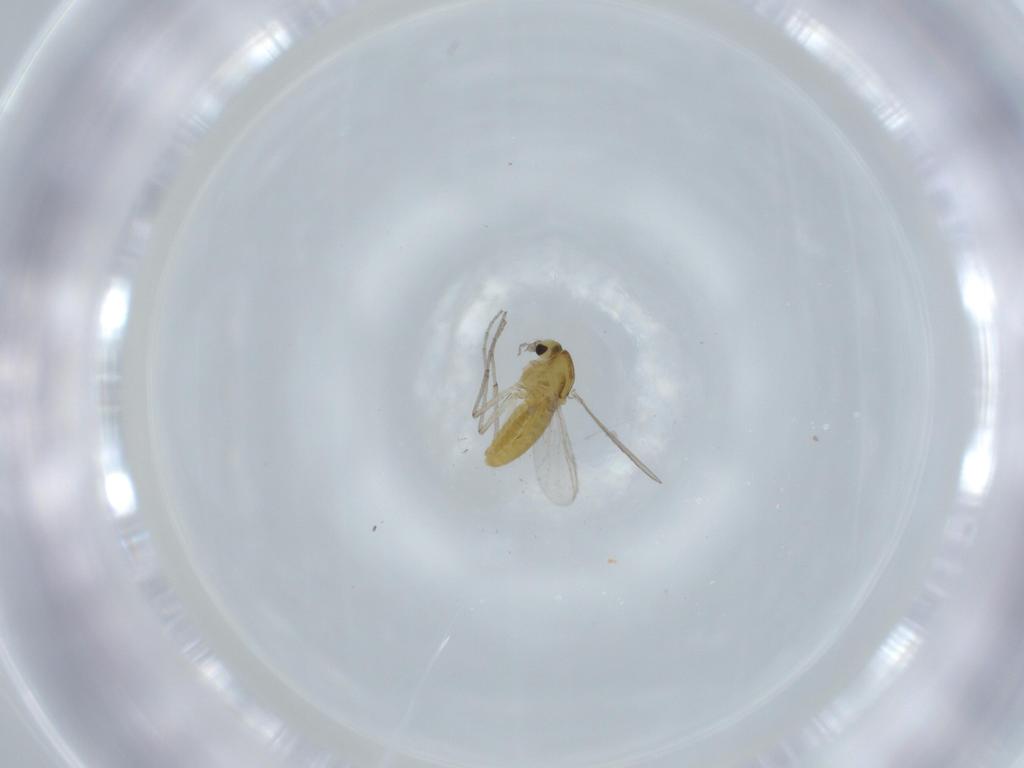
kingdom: Animalia
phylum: Arthropoda
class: Insecta
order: Diptera
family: Chironomidae
